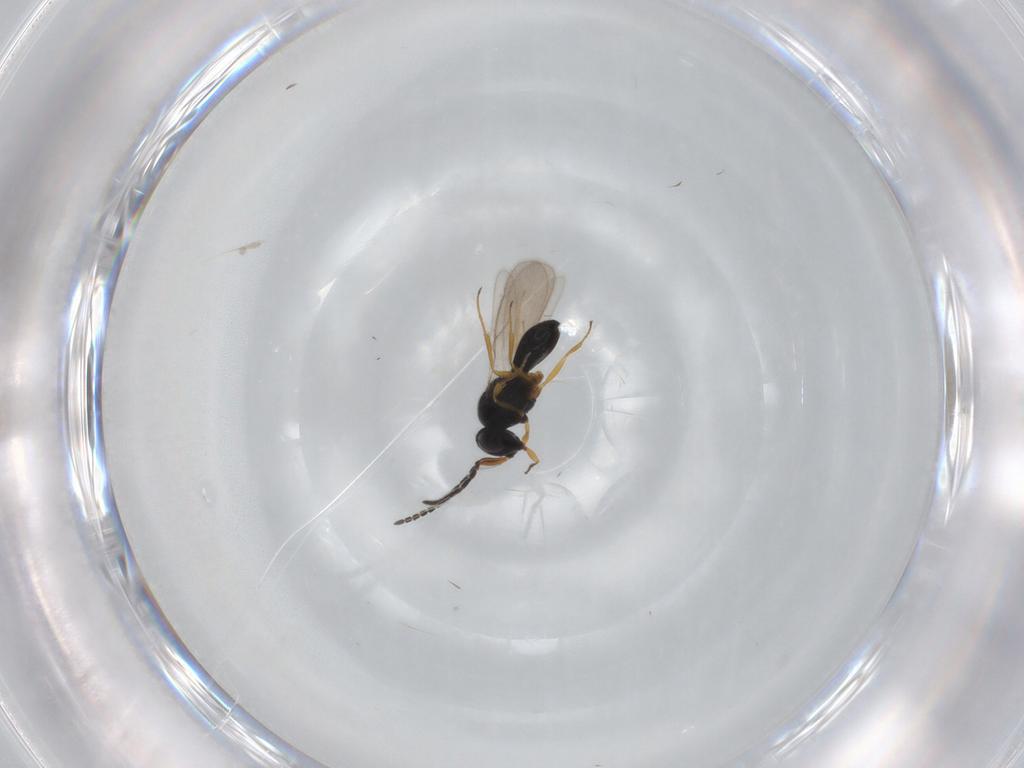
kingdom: Animalia
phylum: Arthropoda
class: Insecta
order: Hymenoptera
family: Scelionidae
